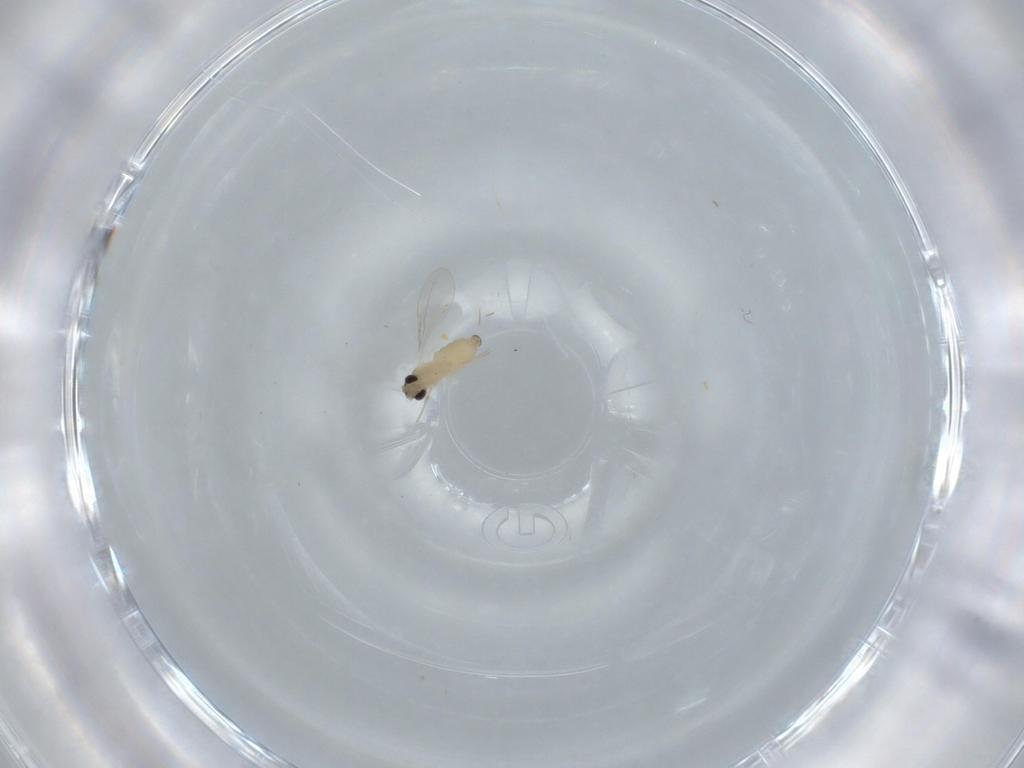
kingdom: Animalia
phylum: Arthropoda
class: Insecta
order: Diptera
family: Cecidomyiidae
